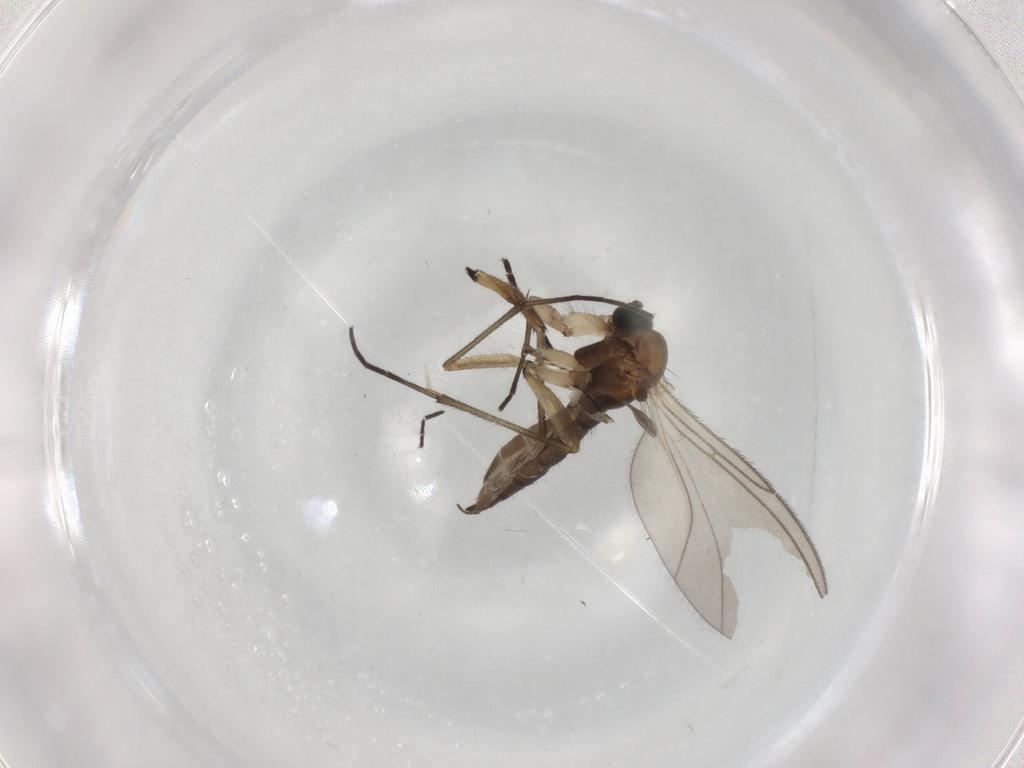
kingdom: Animalia
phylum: Arthropoda
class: Insecta
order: Diptera
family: Sciaridae
